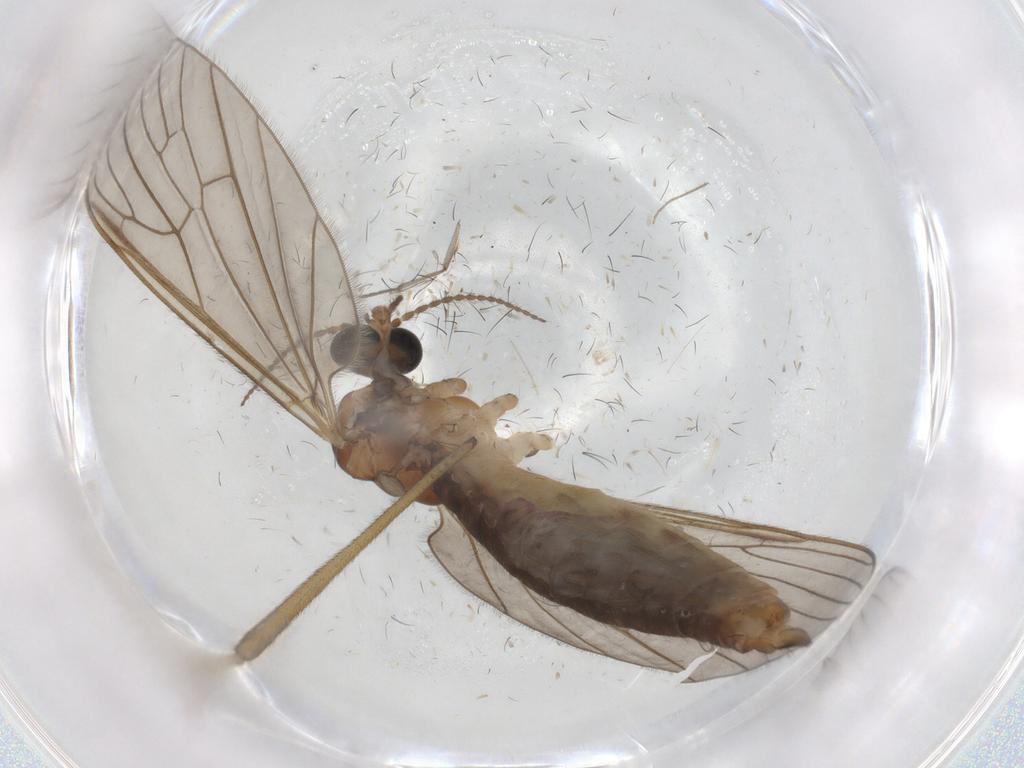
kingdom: Animalia
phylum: Arthropoda
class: Insecta
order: Diptera
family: Limoniidae
